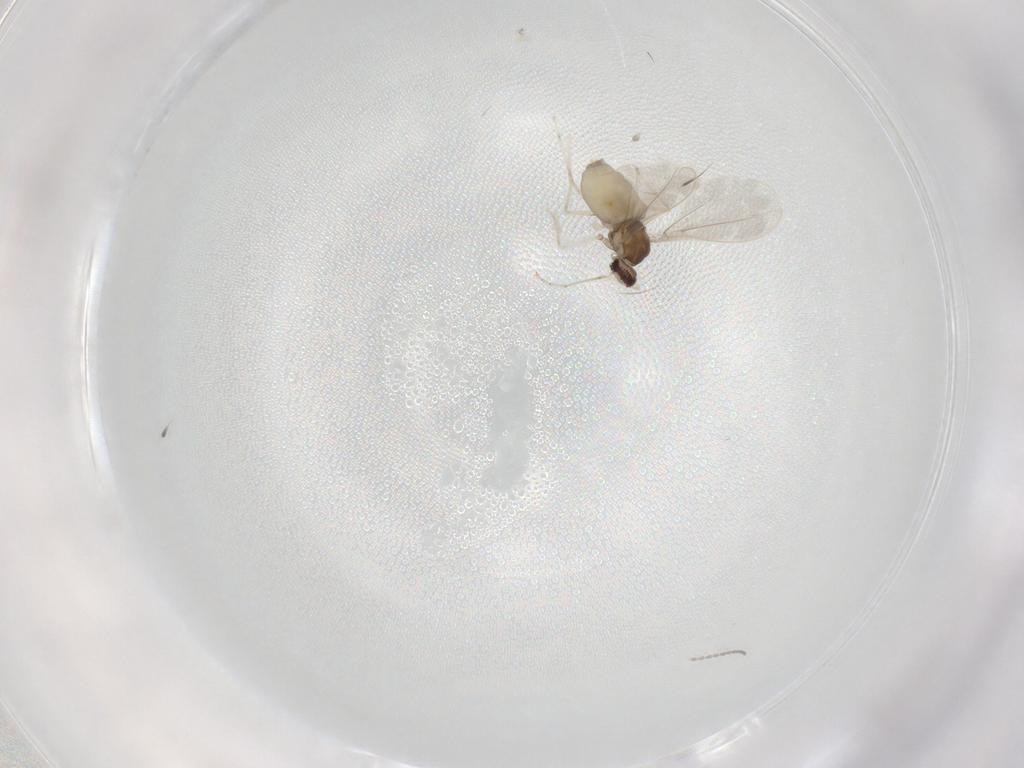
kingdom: Animalia
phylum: Arthropoda
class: Insecta
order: Diptera
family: Cecidomyiidae
